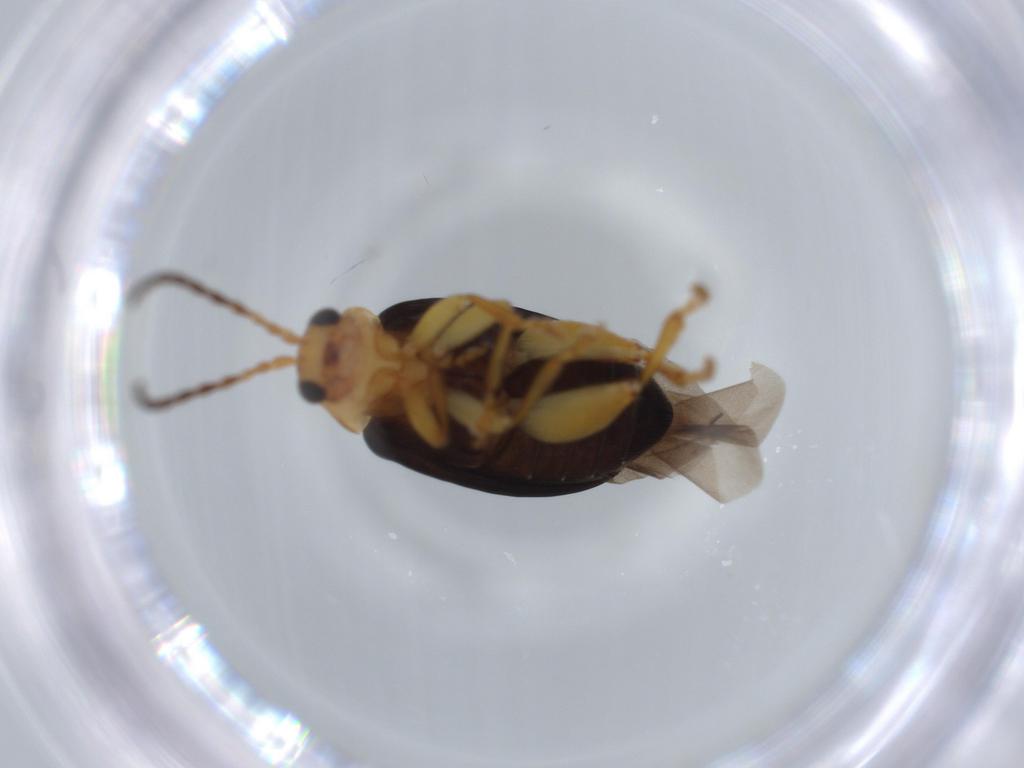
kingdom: Animalia
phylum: Arthropoda
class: Insecta
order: Coleoptera
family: Chrysomelidae
